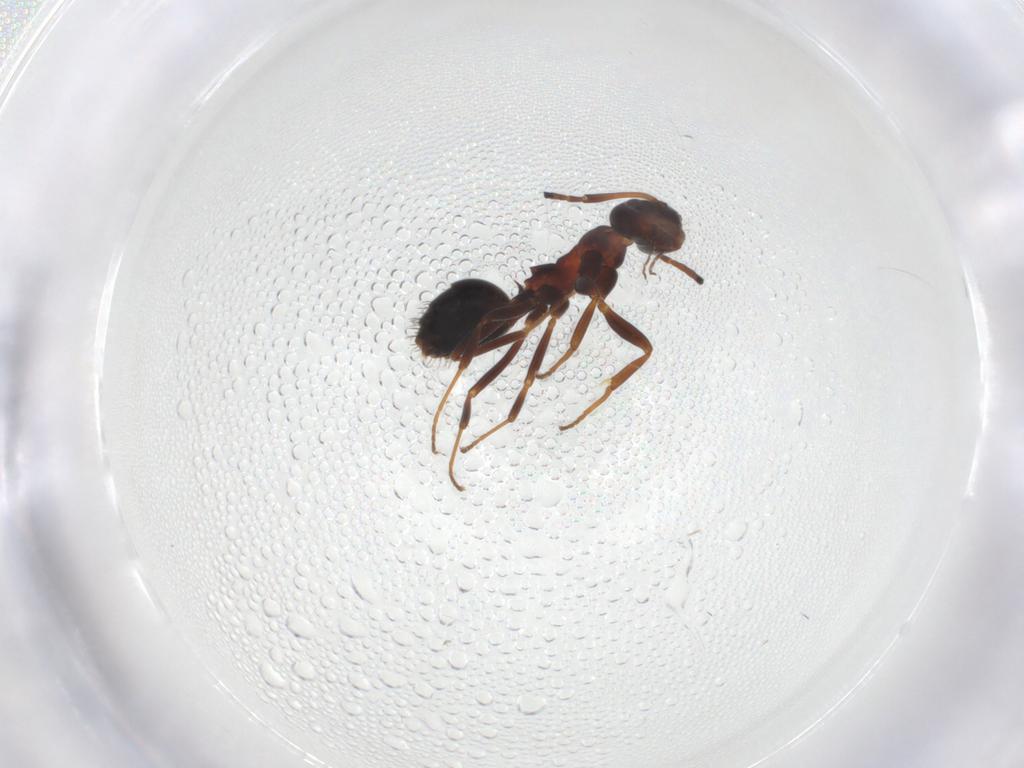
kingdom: Animalia
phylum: Arthropoda
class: Insecta
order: Hymenoptera
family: Formicidae
